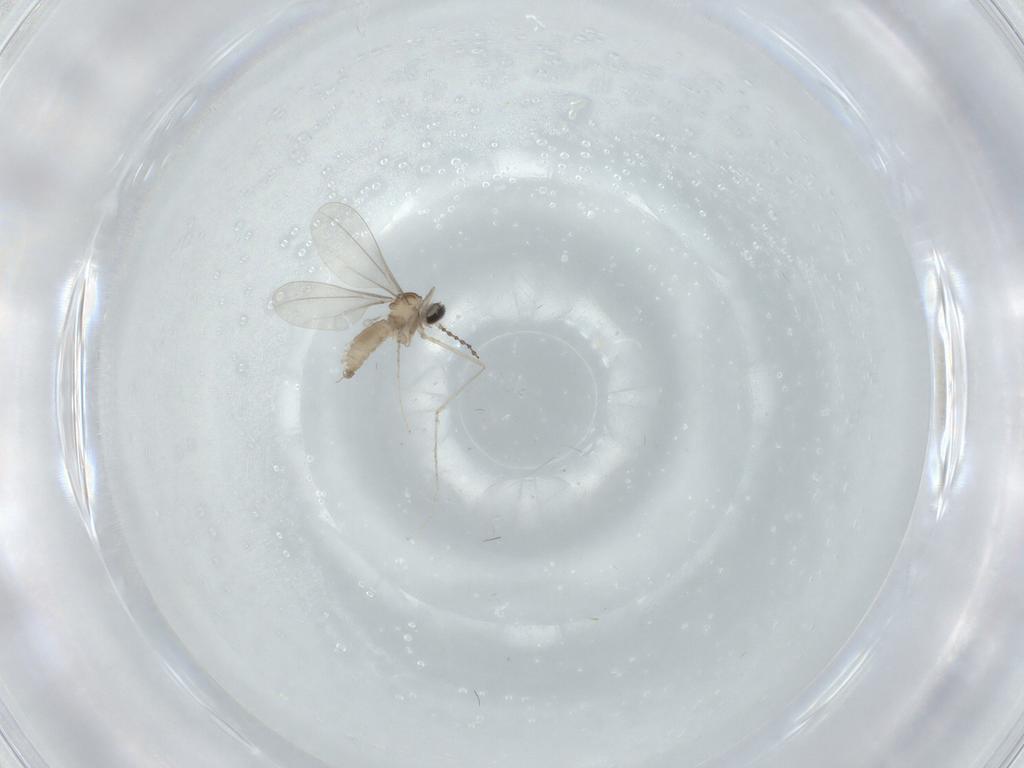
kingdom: Animalia
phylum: Arthropoda
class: Insecta
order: Diptera
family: Cecidomyiidae
